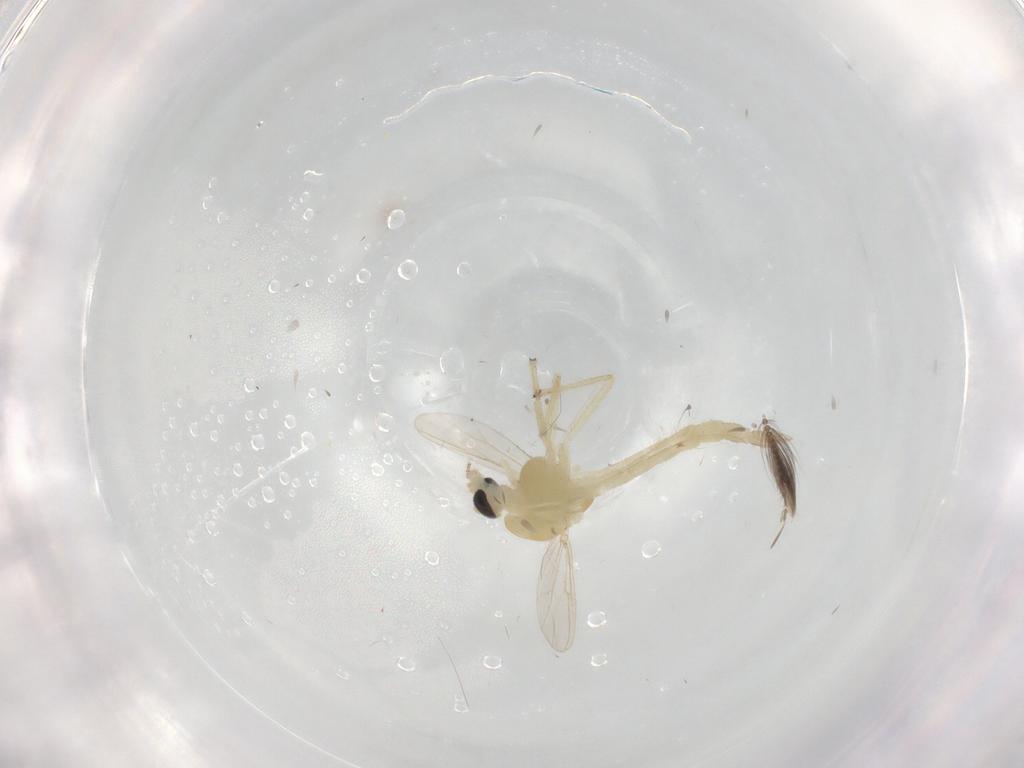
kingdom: Animalia
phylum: Arthropoda
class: Insecta
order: Diptera
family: Chironomidae
